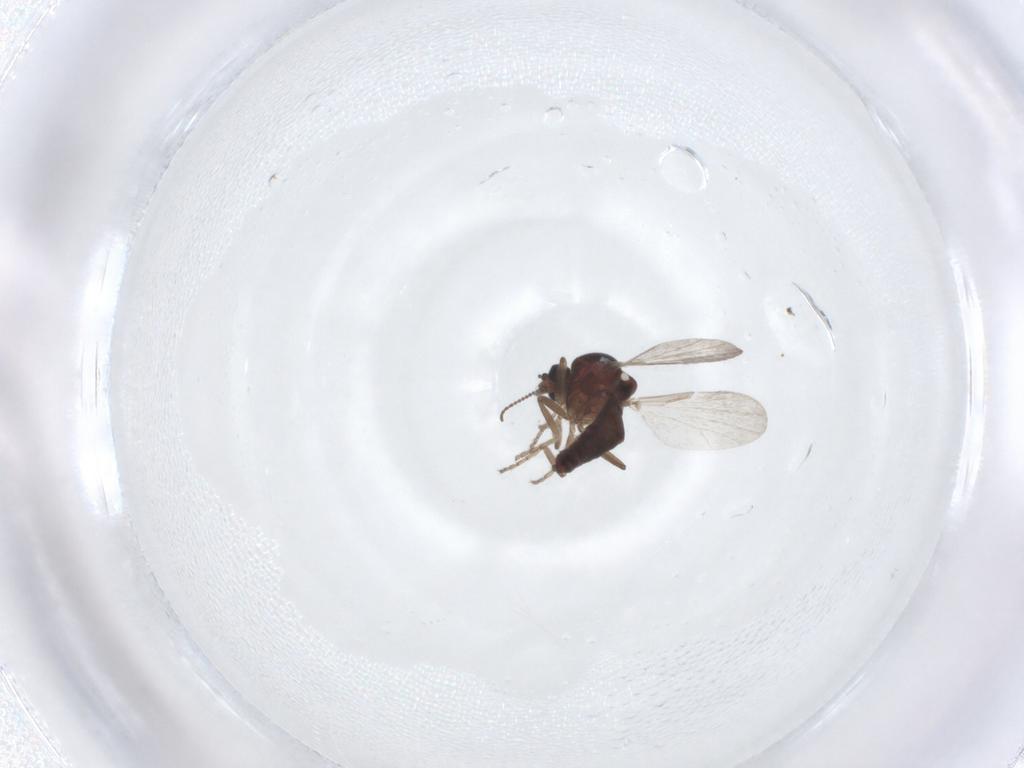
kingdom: Animalia
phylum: Arthropoda
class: Insecta
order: Diptera
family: Ceratopogonidae
